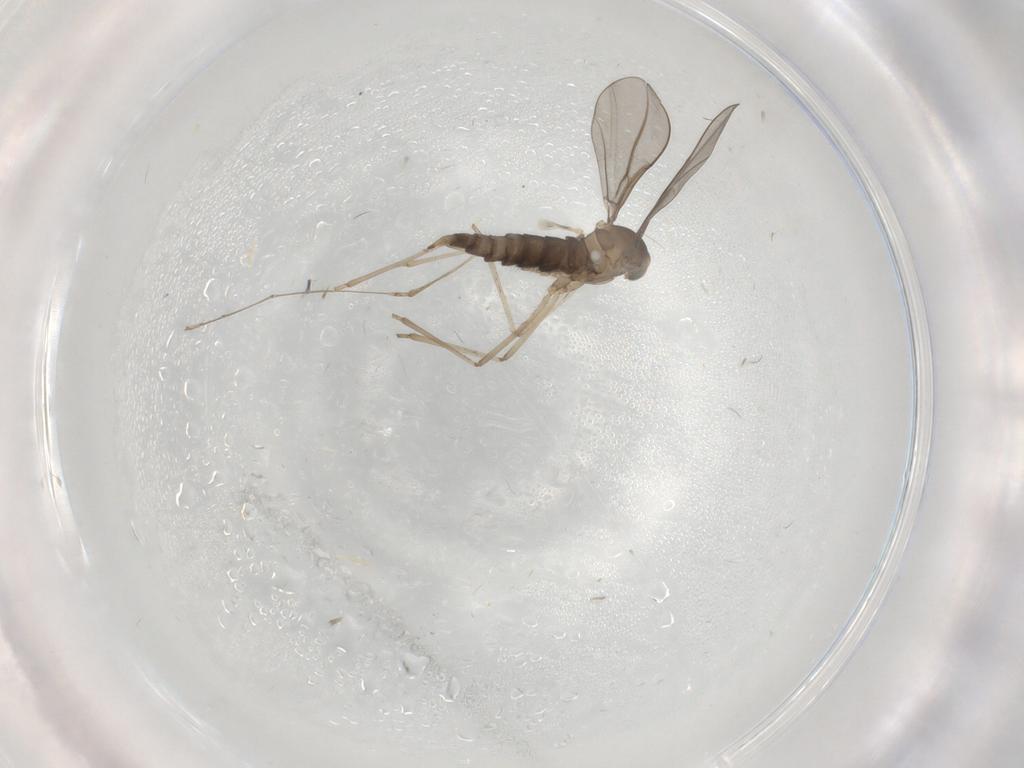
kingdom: Animalia
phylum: Arthropoda
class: Insecta
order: Diptera
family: Cecidomyiidae
